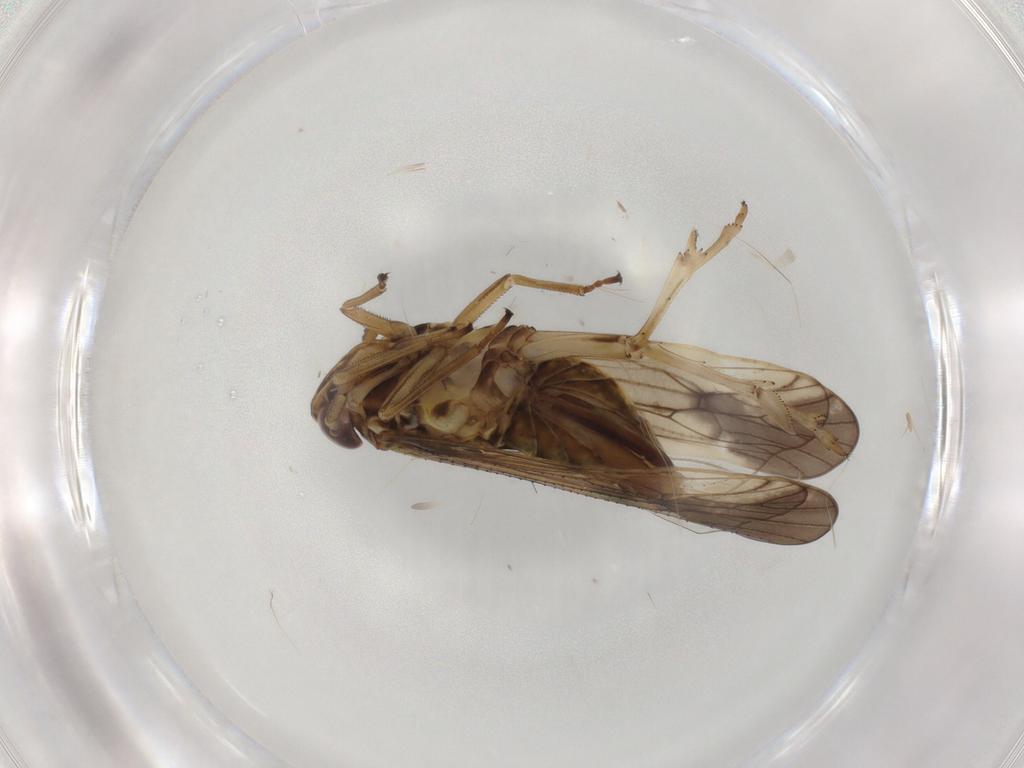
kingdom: Animalia
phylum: Arthropoda
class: Insecta
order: Hemiptera
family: Delphacidae
